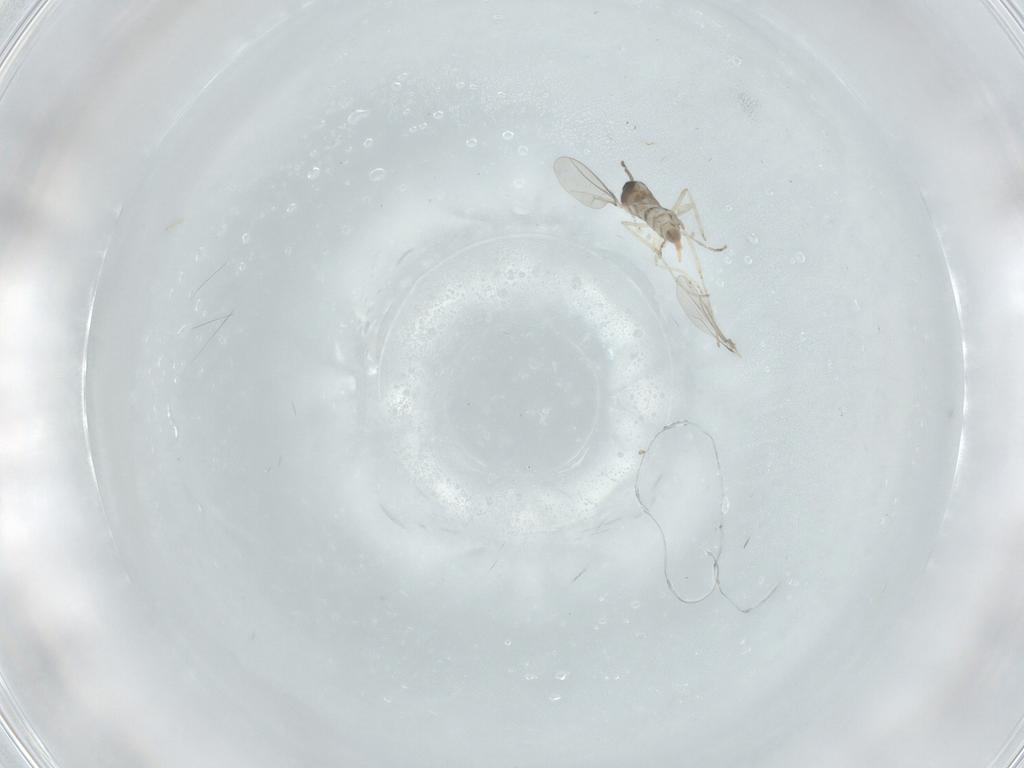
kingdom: Animalia
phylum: Arthropoda
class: Insecta
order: Diptera
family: Cecidomyiidae
